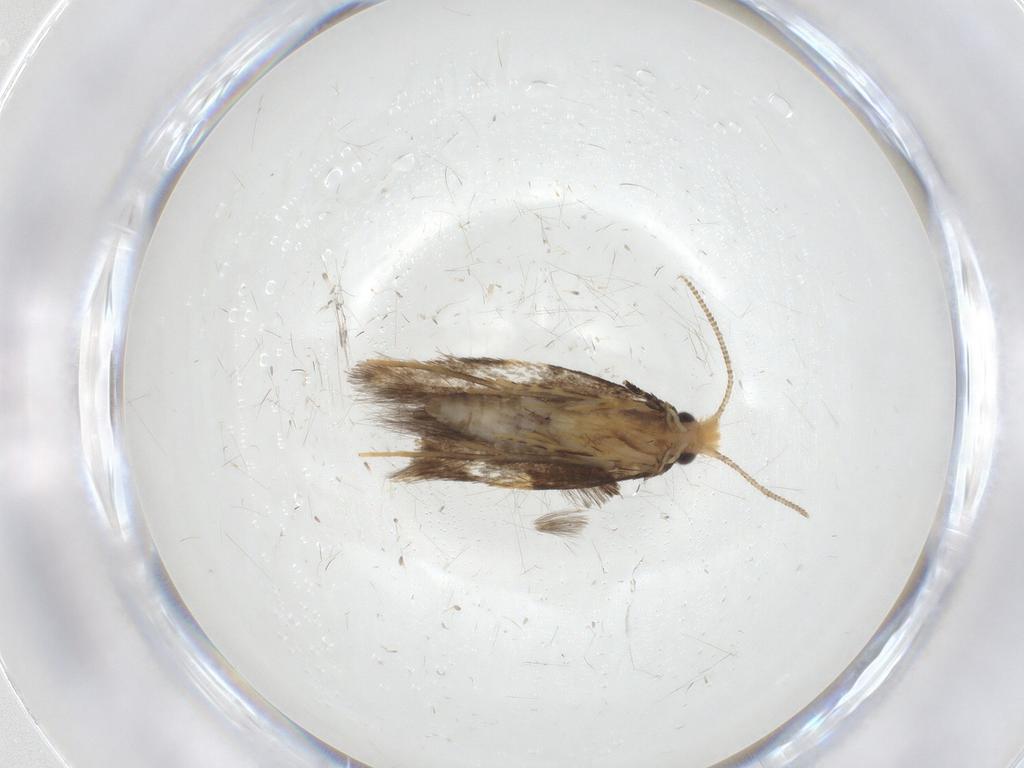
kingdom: Animalia
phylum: Arthropoda
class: Insecta
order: Lepidoptera
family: Tineidae
